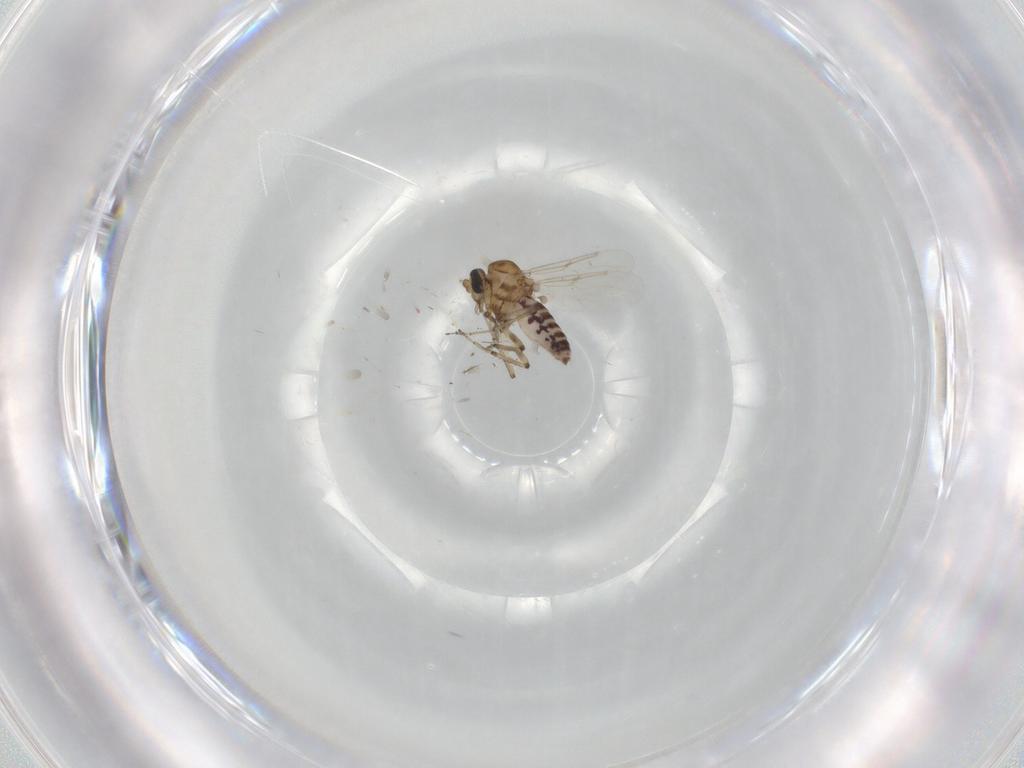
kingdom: Animalia
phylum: Arthropoda
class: Insecta
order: Diptera
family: Ceratopogonidae
